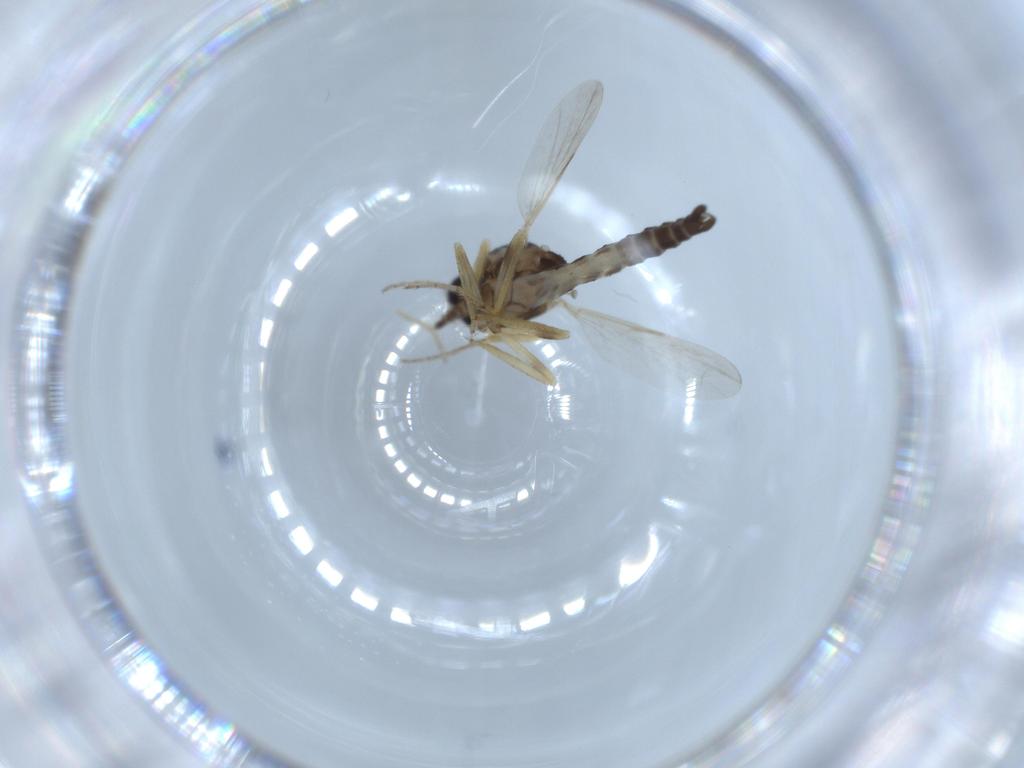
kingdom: Animalia
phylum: Arthropoda
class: Insecta
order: Diptera
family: Ceratopogonidae
